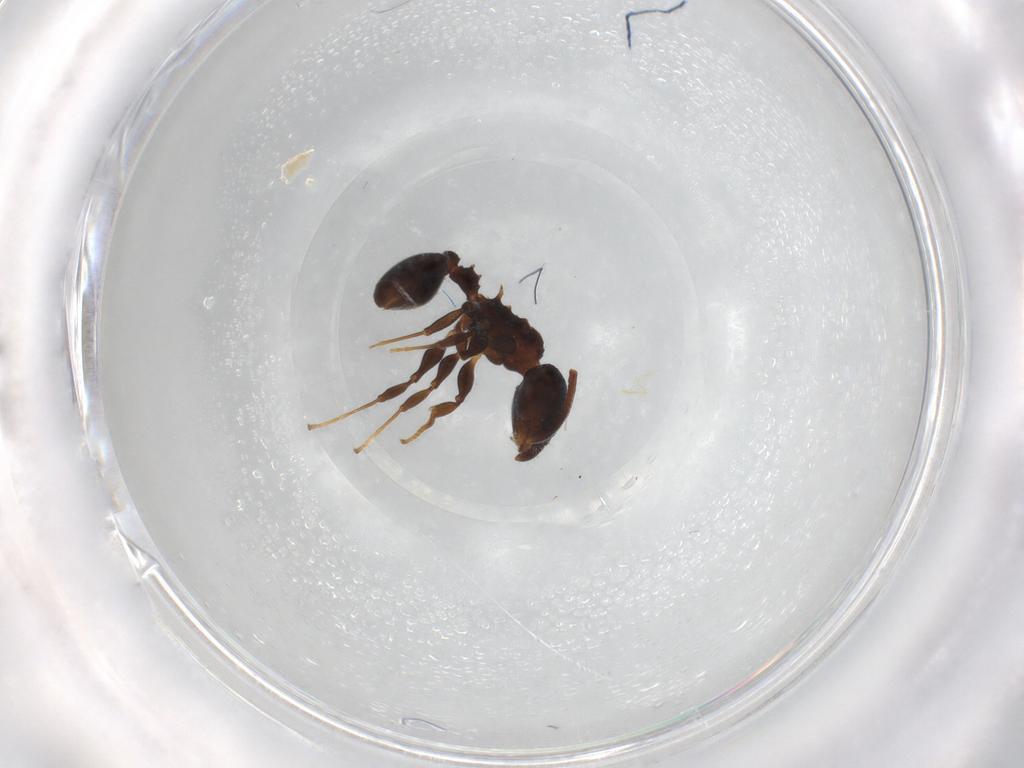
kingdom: Animalia
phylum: Arthropoda
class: Insecta
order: Hymenoptera
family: Formicidae
